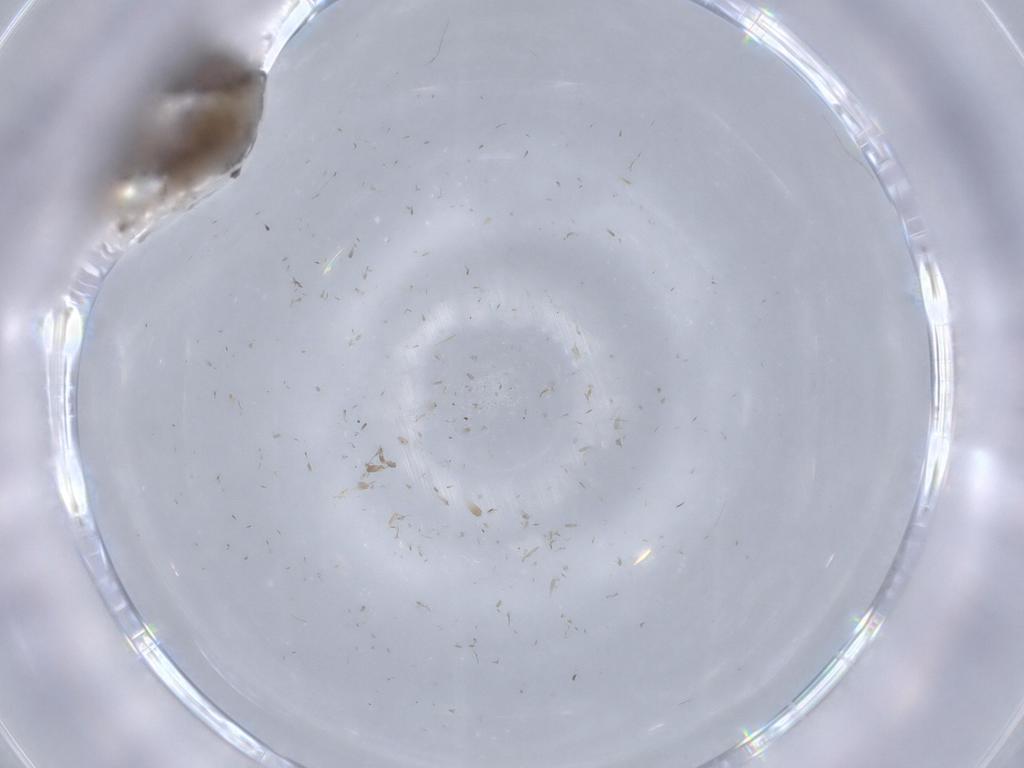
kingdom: Animalia
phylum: Arthropoda
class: Insecta
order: Lepidoptera
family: Tineidae
